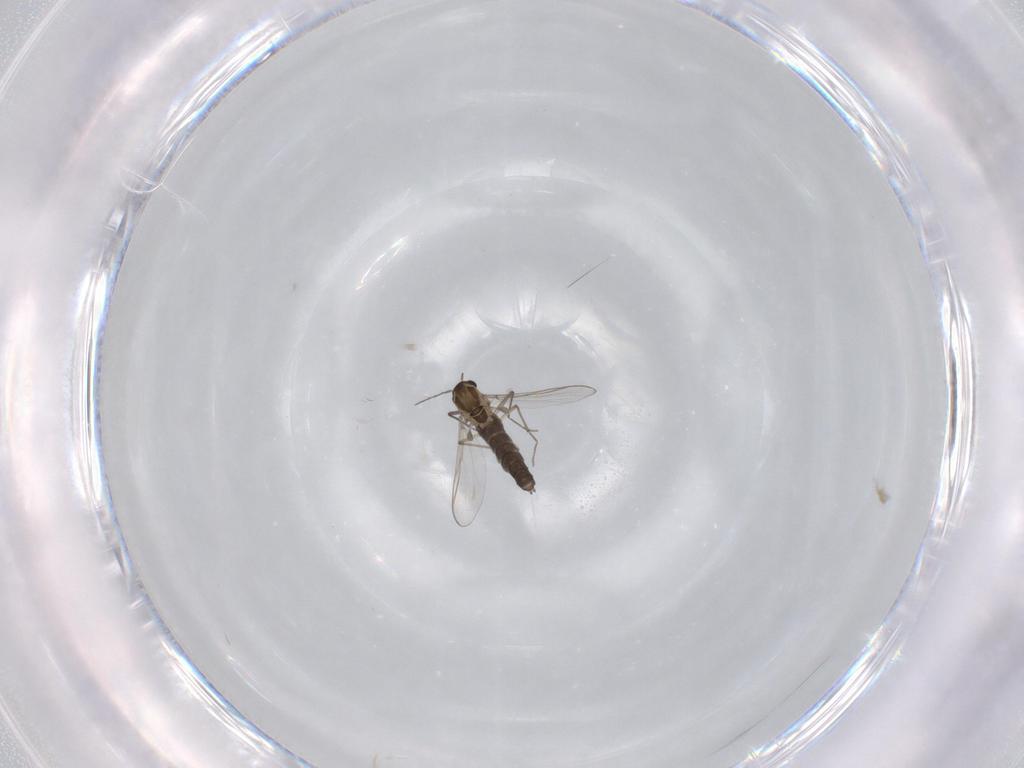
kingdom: Animalia
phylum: Arthropoda
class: Insecta
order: Diptera
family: Chironomidae
